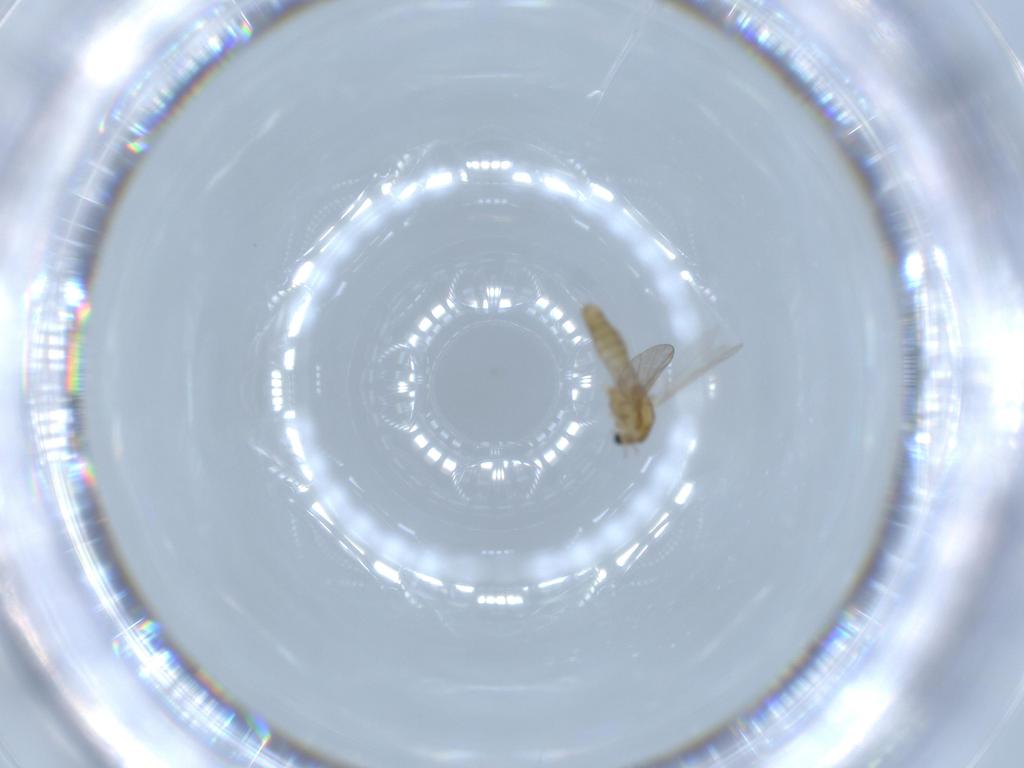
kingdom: Animalia
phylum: Arthropoda
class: Insecta
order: Diptera
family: Chironomidae
